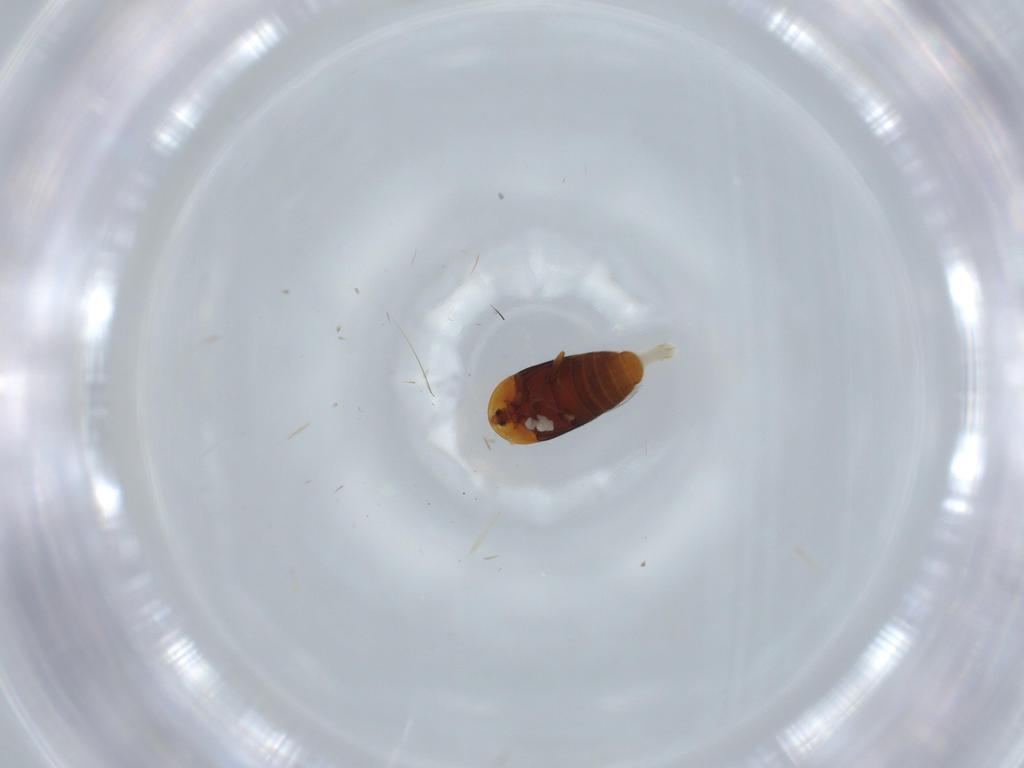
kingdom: Animalia
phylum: Arthropoda
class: Insecta
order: Coleoptera
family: Corylophidae
